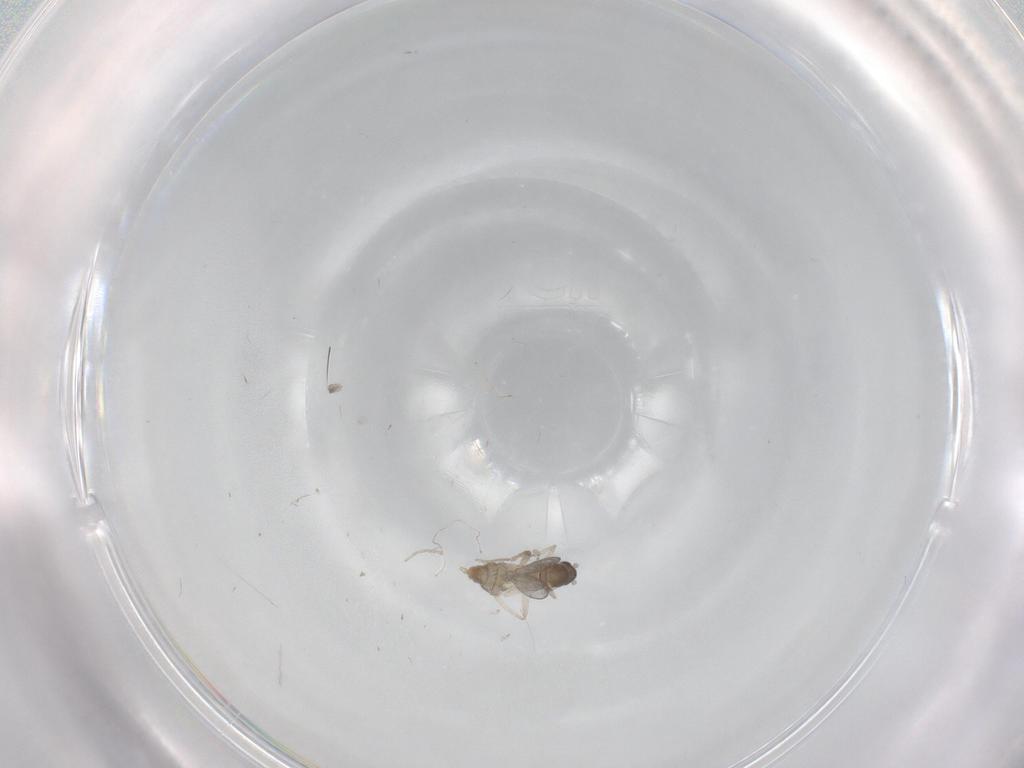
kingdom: Animalia
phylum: Arthropoda
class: Insecta
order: Diptera
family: Cecidomyiidae
